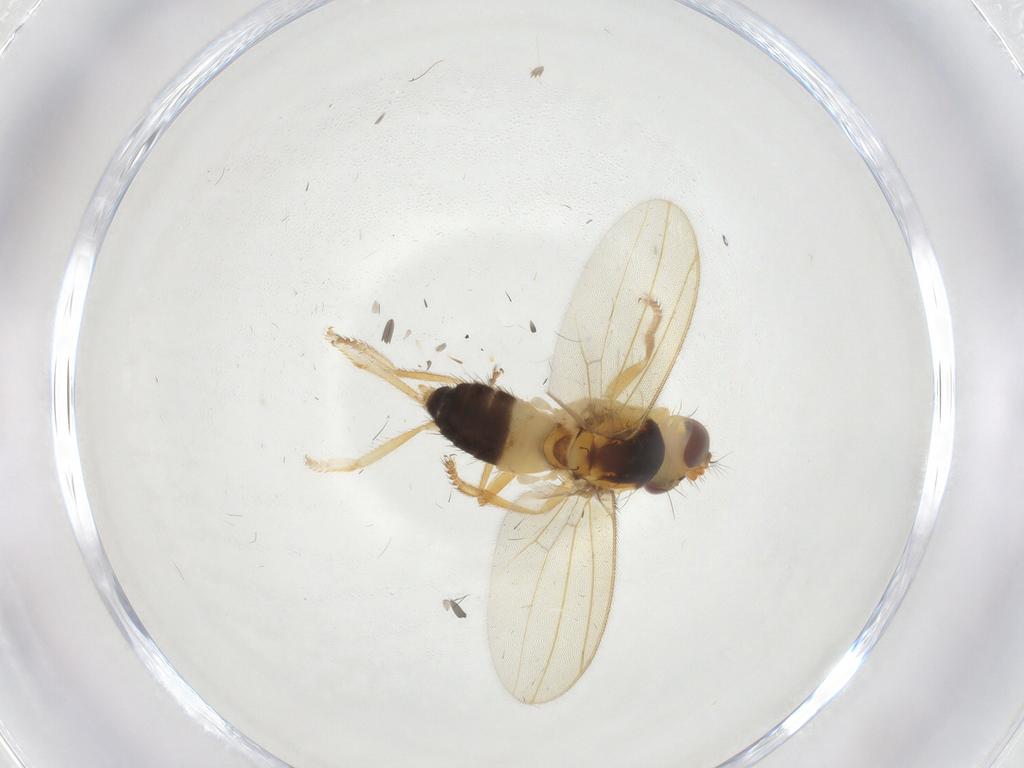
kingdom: Animalia
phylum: Arthropoda
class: Insecta
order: Diptera
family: Periscelididae
